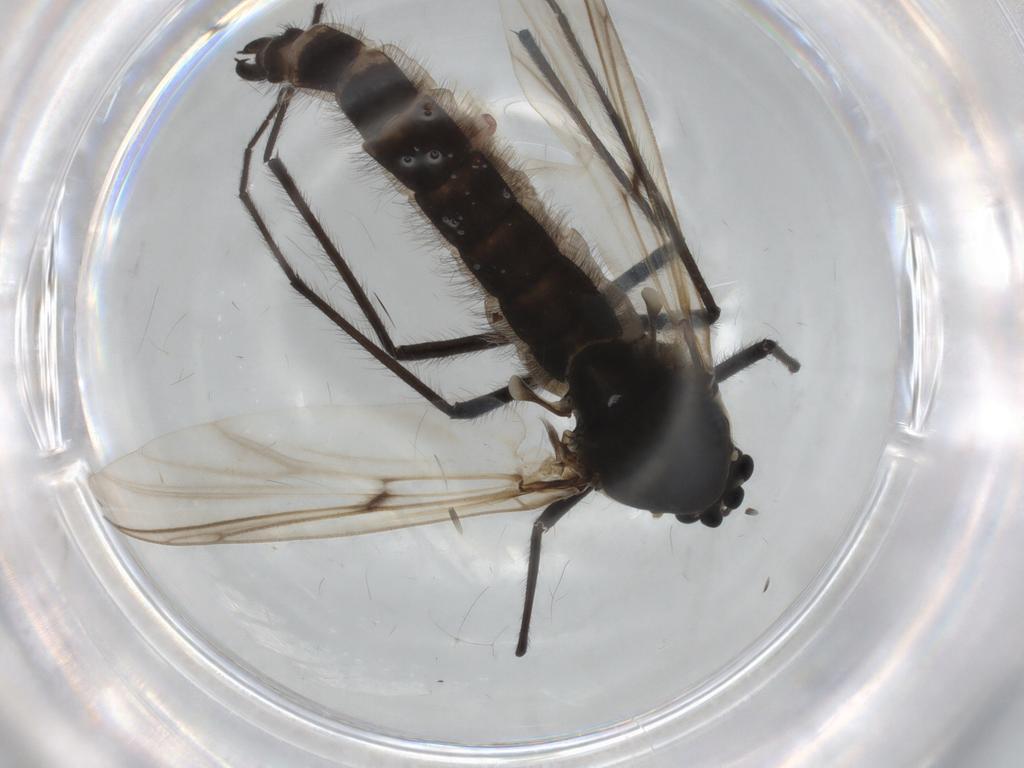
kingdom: Animalia
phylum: Arthropoda
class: Insecta
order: Diptera
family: Chironomidae
